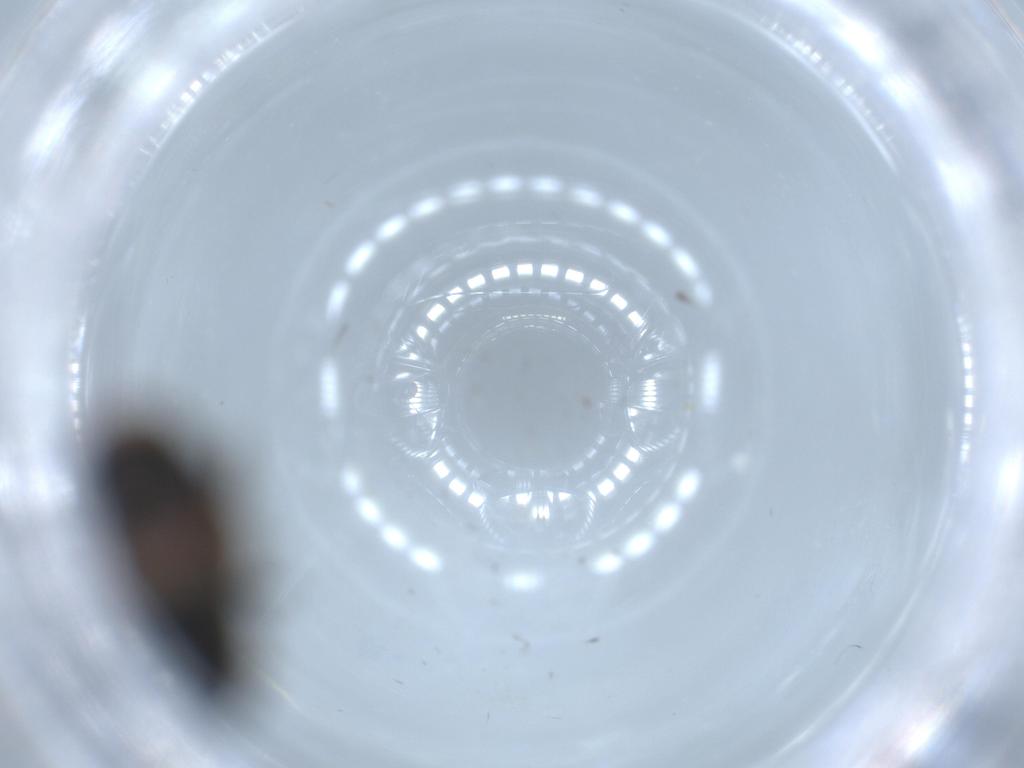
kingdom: Animalia
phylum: Arthropoda
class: Insecta
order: Coleoptera
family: Curculionidae
